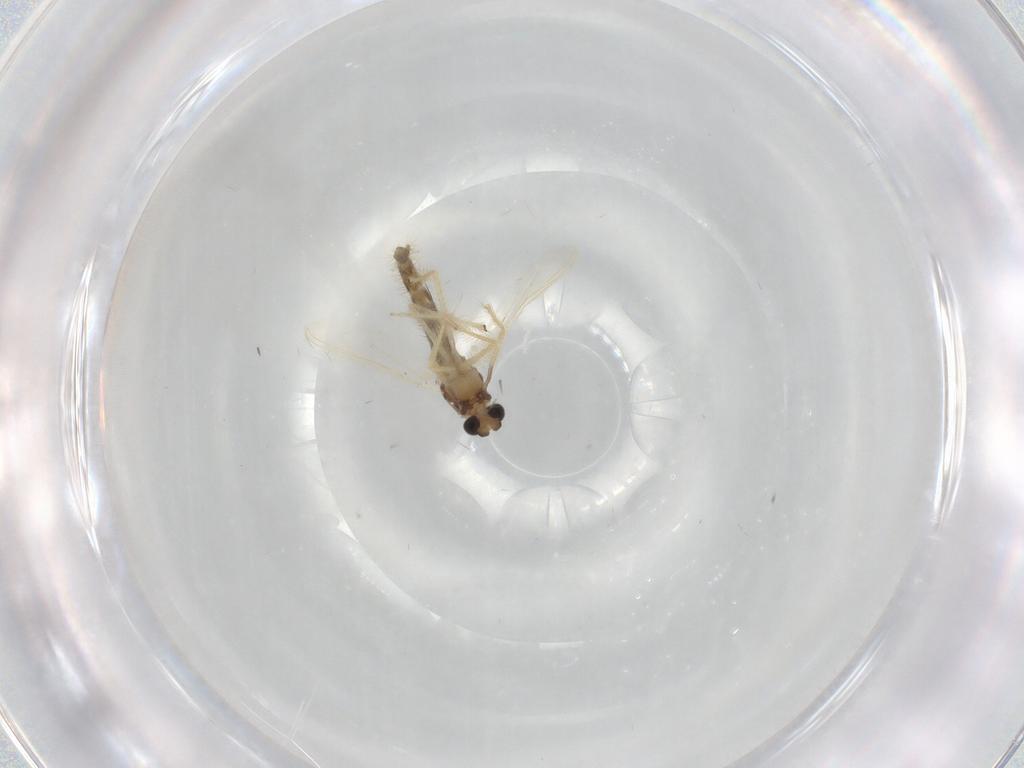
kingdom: Animalia
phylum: Arthropoda
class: Insecta
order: Diptera
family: Chironomidae
